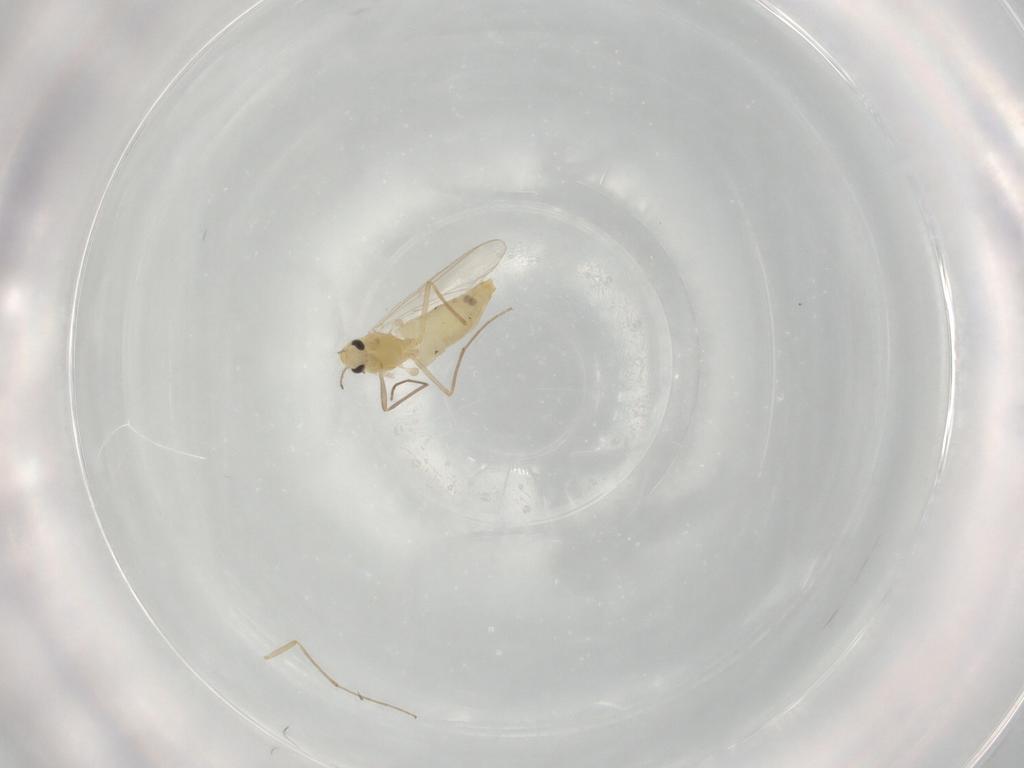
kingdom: Animalia
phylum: Arthropoda
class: Insecta
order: Diptera
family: Chironomidae
